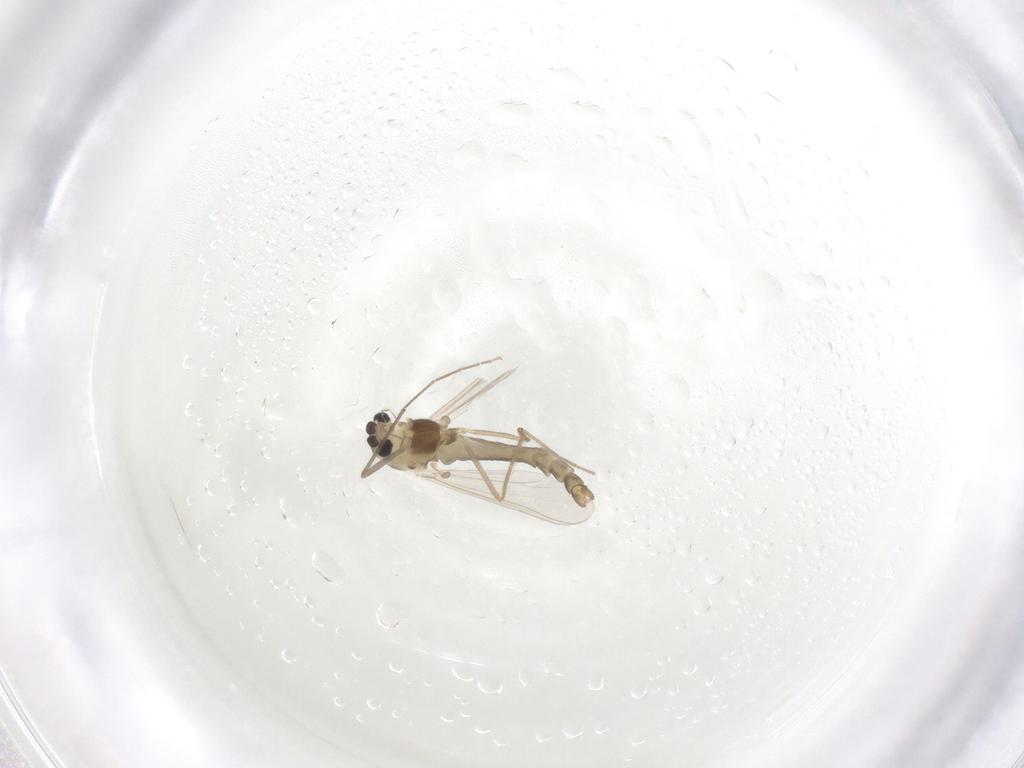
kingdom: Animalia
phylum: Arthropoda
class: Insecta
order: Diptera
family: Chironomidae
